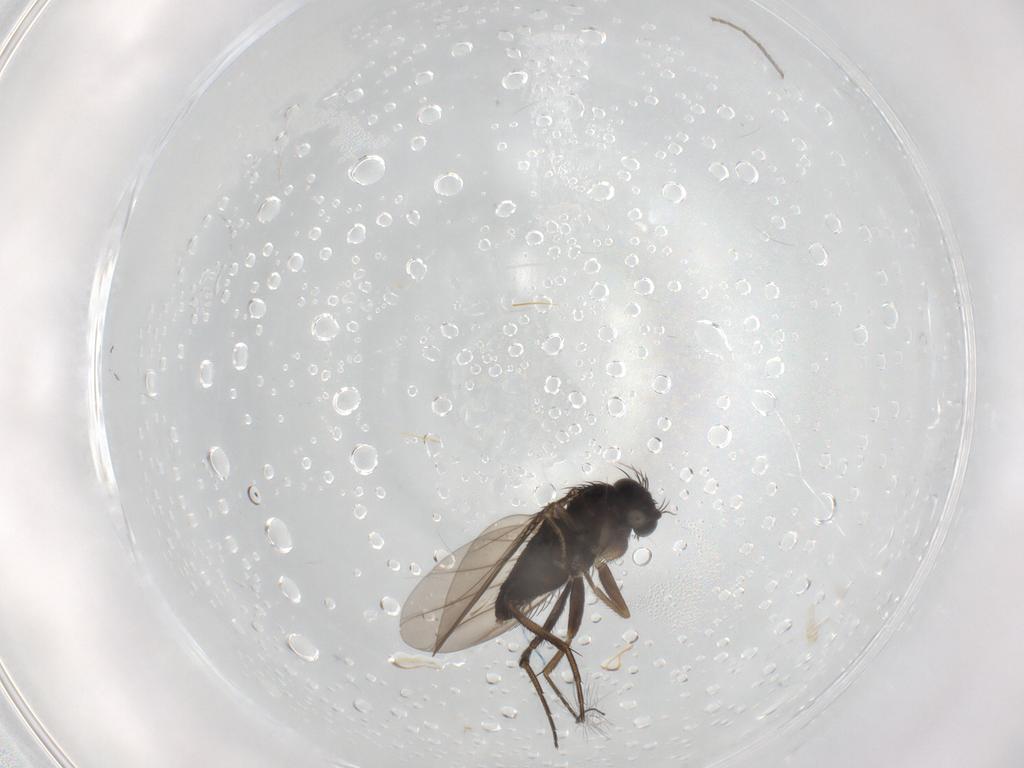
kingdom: Animalia
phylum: Arthropoda
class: Insecta
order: Diptera
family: Phoridae
